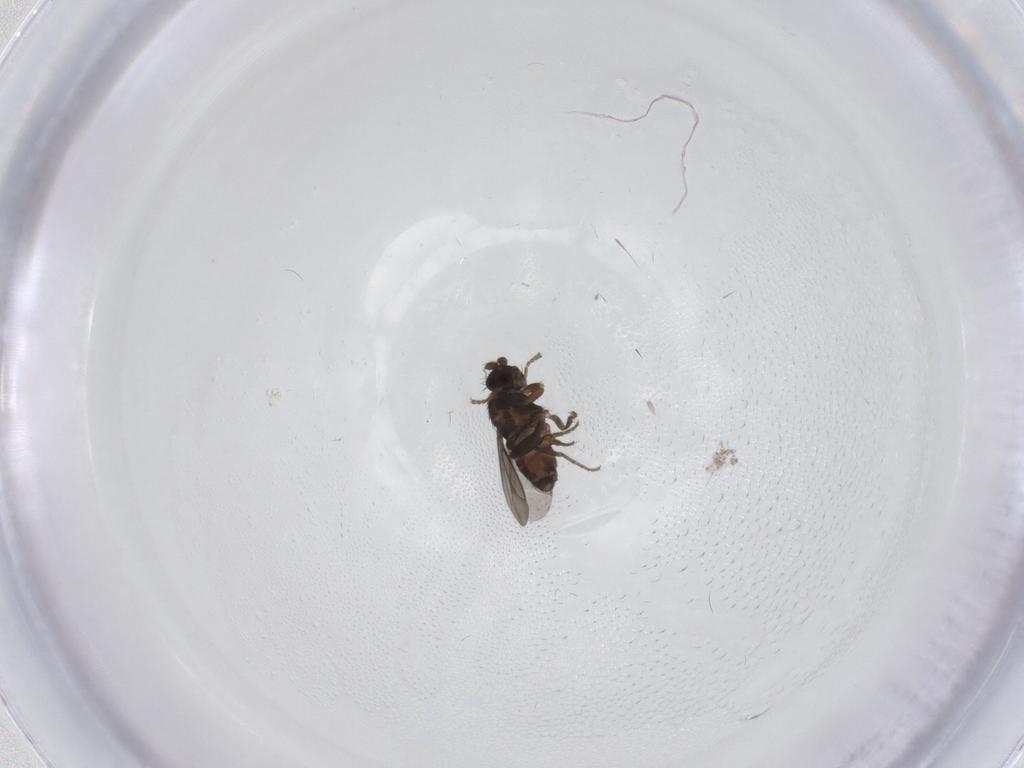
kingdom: Animalia
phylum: Arthropoda
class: Insecta
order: Diptera
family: Sphaeroceridae
